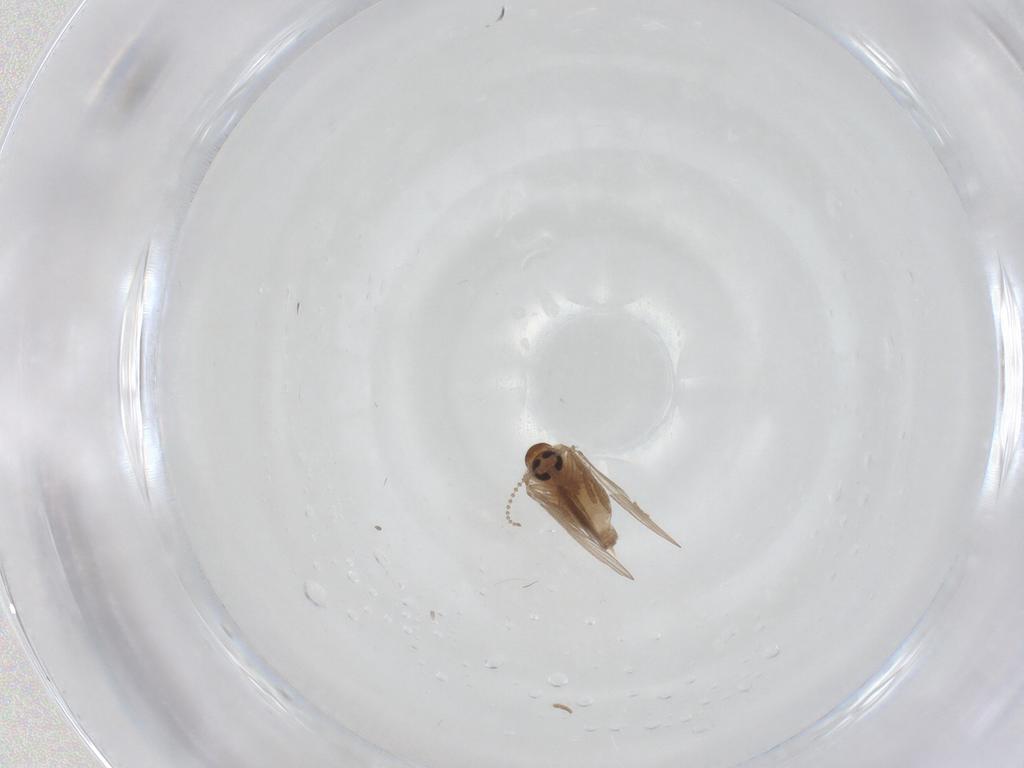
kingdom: Animalia
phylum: Arthropoda
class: Insecta
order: Diptera
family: Psychodidae
